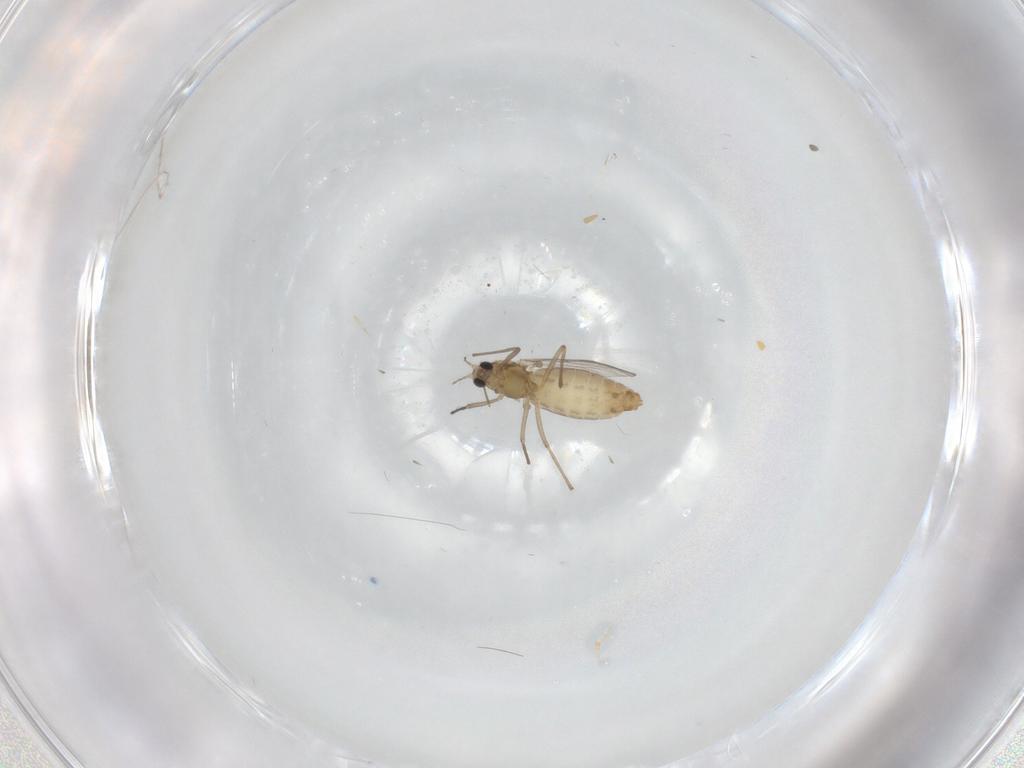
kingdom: Animalia
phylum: Arthropoda
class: Insecta
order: Diptera
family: Chironomidae
